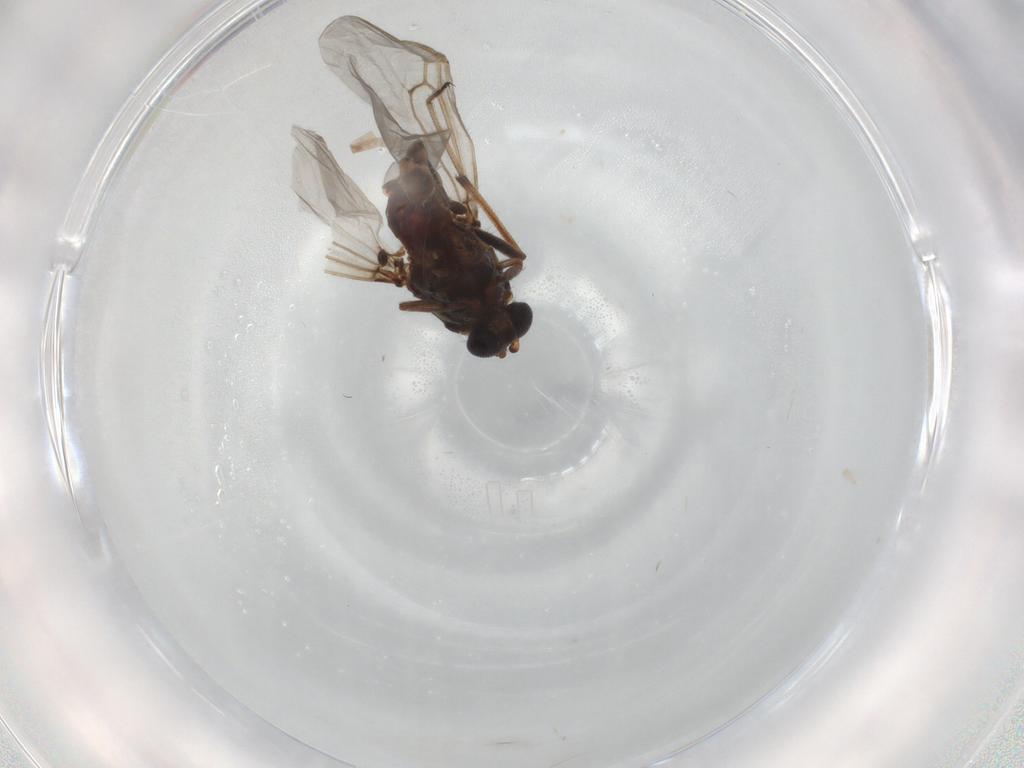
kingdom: Animalia
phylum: Arthropoda
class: Insecta
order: Diptera
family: Ceratopogonidae
